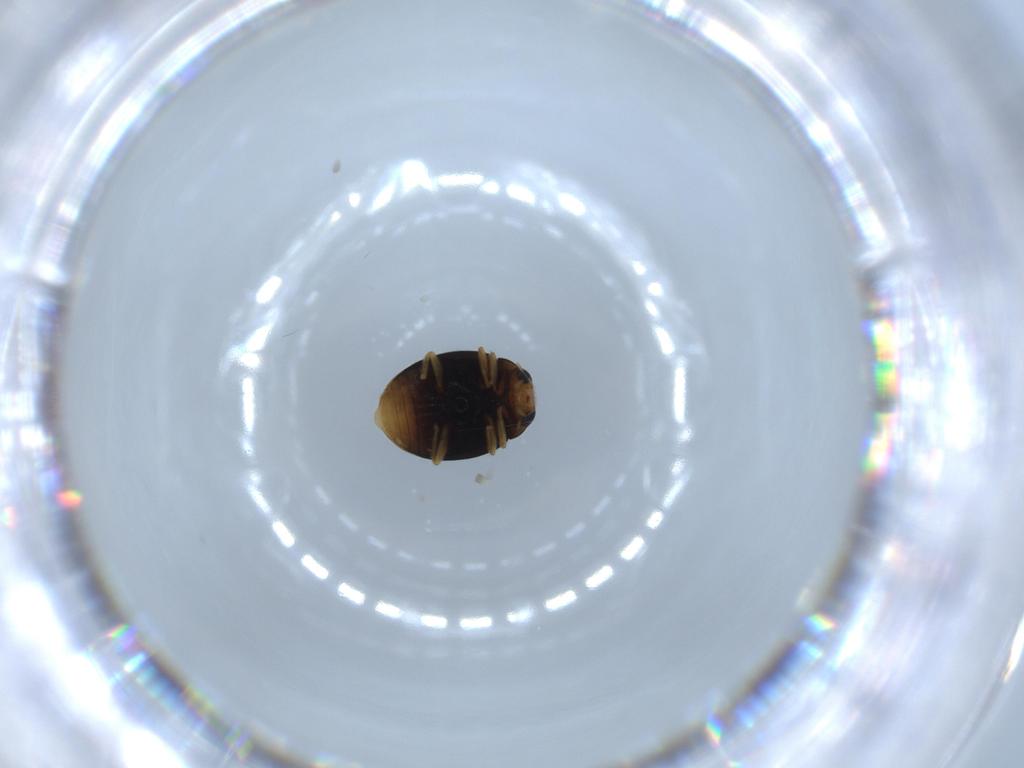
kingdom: Animalia
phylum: Arthropoda
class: Insecta
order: Coleoptera
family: Coccinellidae
